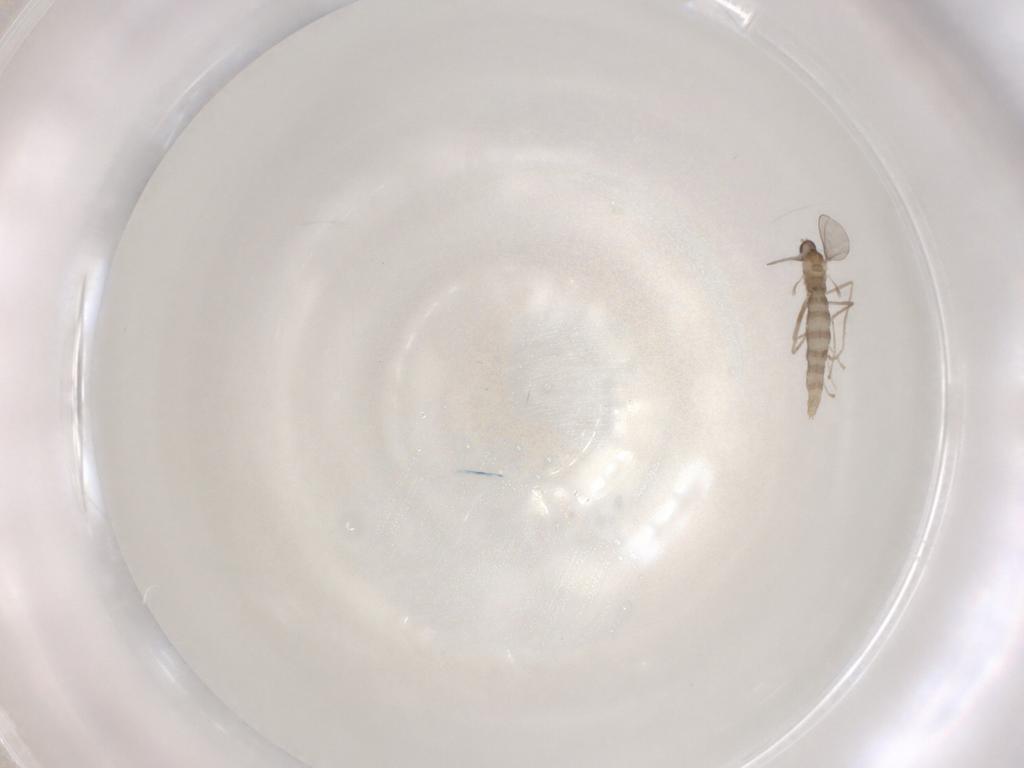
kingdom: Animalia
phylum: Arthropoda
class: Insecta
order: Diptera
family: Cecidomyiidae
